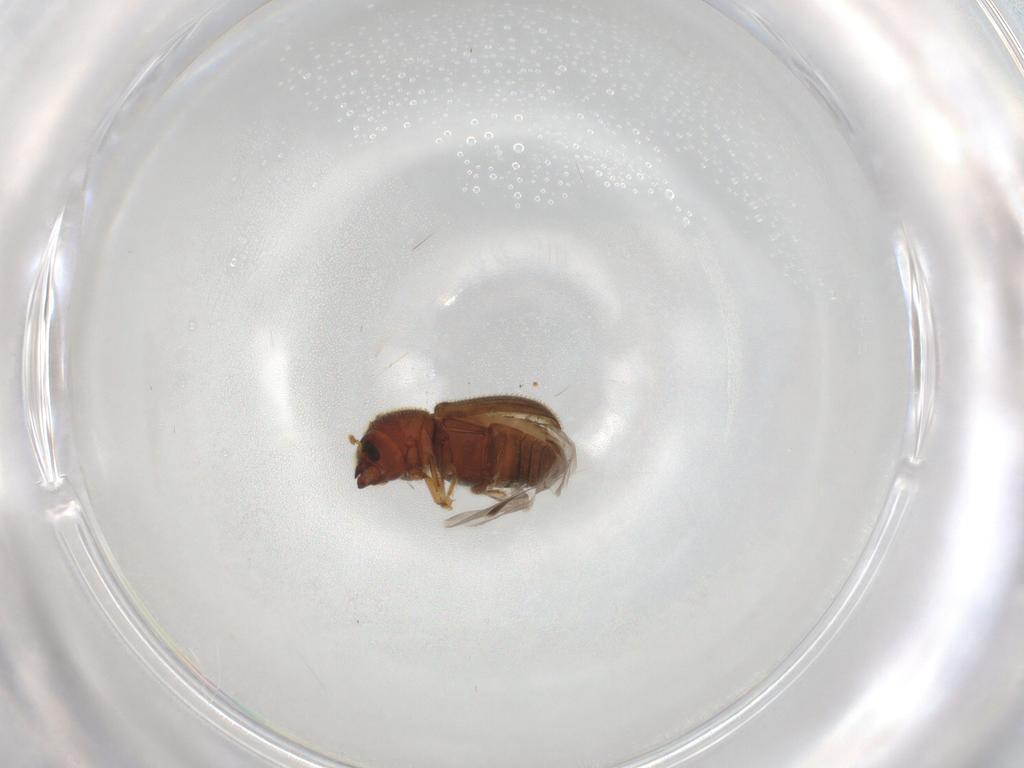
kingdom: Animalia
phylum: Arthropoda
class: Insecta
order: Coleoptera
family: Curculionidae
